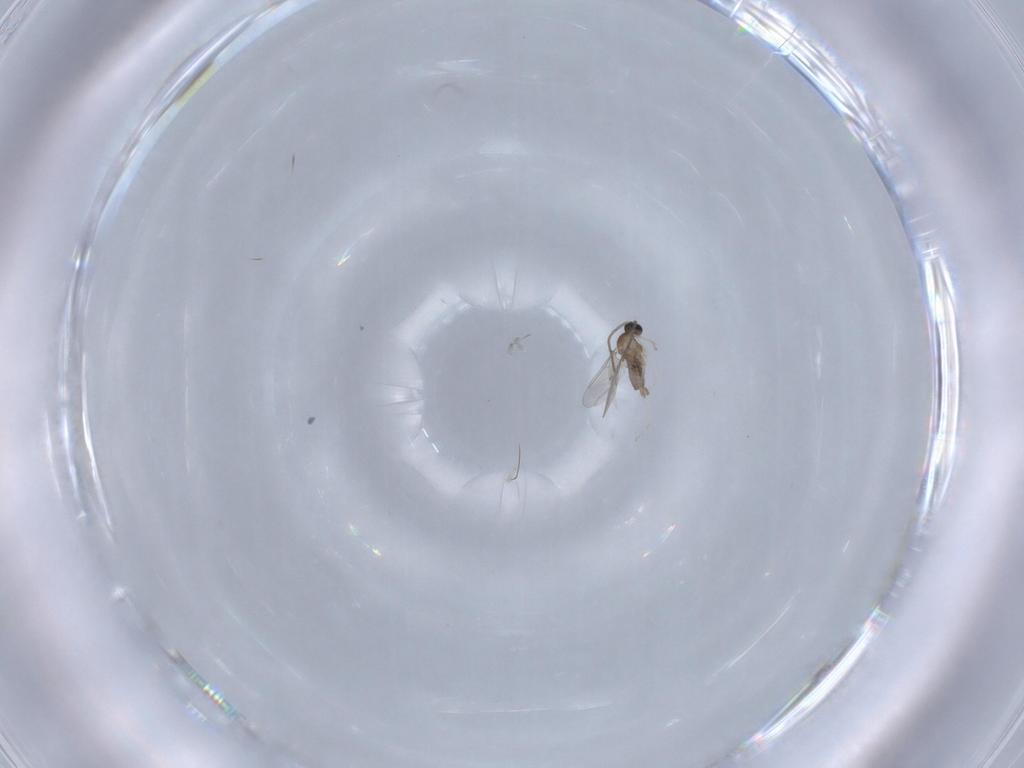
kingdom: Animalia
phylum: Arthropoda
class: Insecta
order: Diptera
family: Cecidomyiidae
